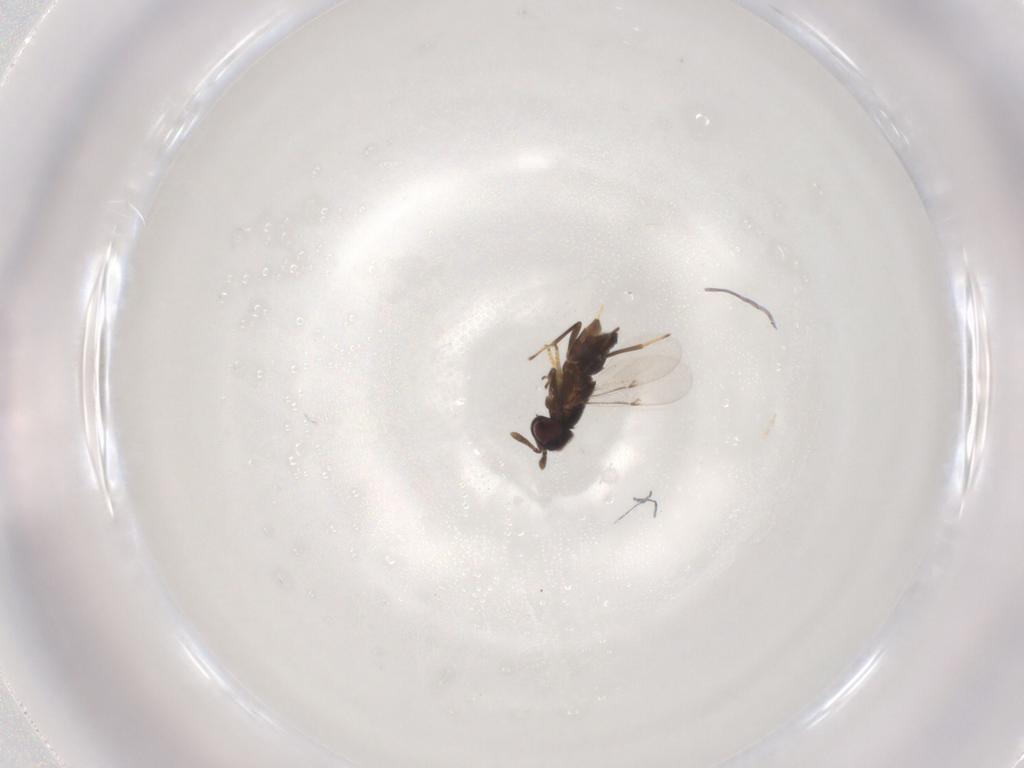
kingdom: Animalia
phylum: Arthropoda
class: Insecta
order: Hymenoptera
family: Encyrtidae
